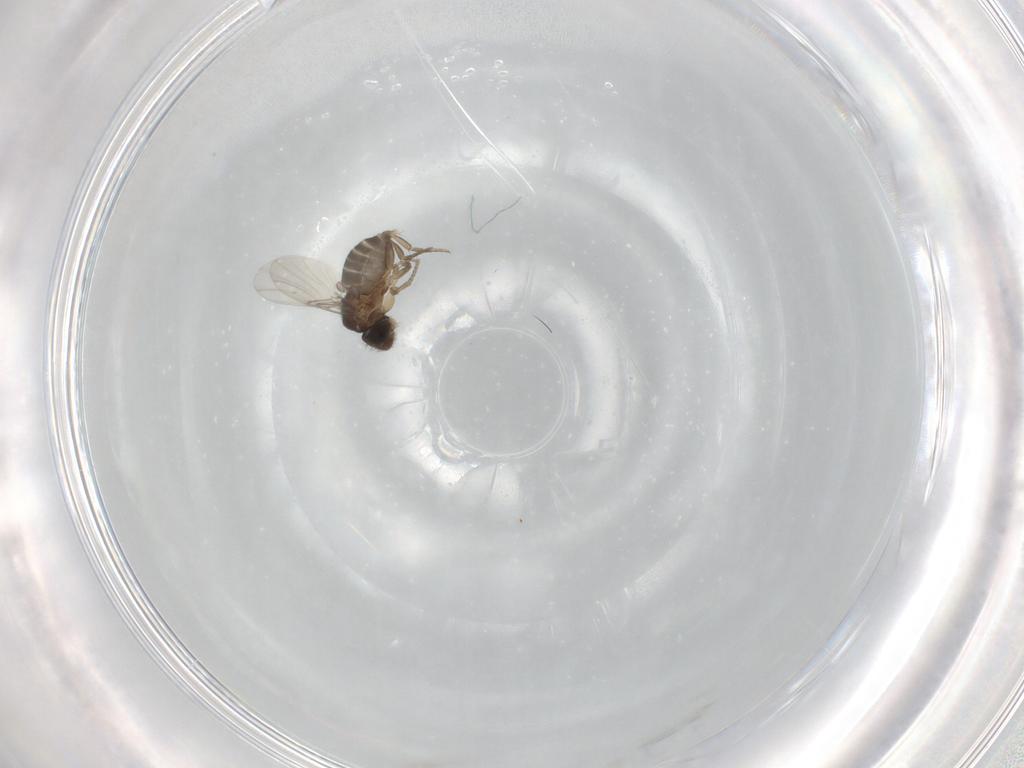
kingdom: Animalia
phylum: Arthropoda
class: Insecta
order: Diptera
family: Phoridae
